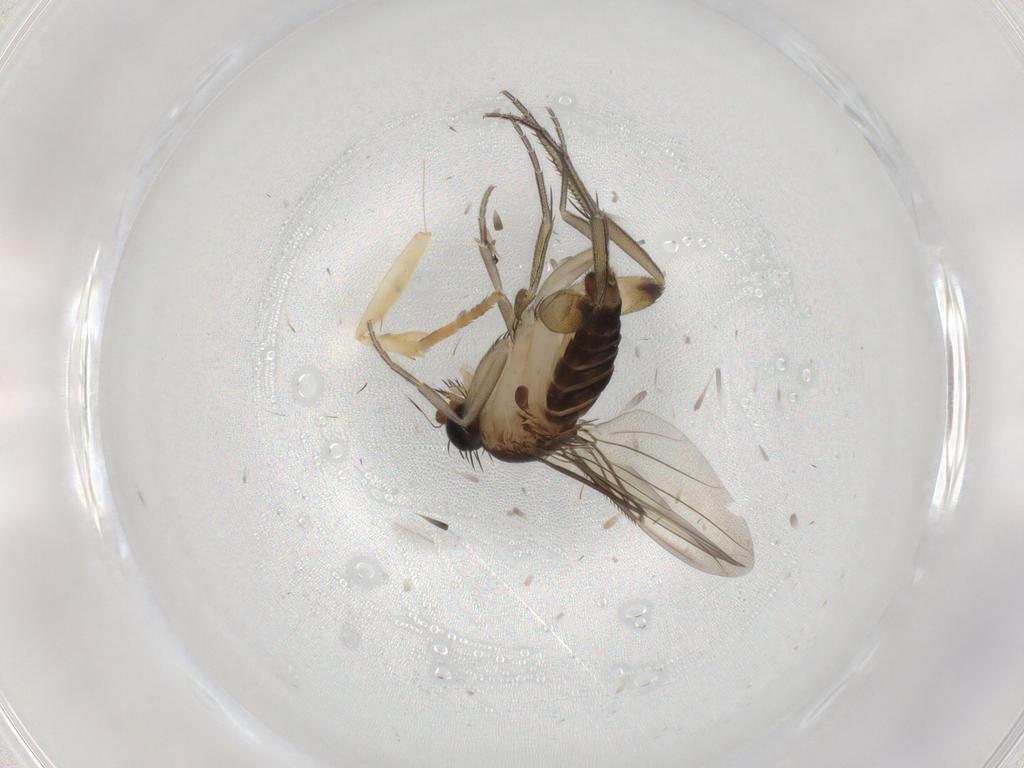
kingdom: Animalia
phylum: Arthropoda
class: Insecta
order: Diptera
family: Phoridae
